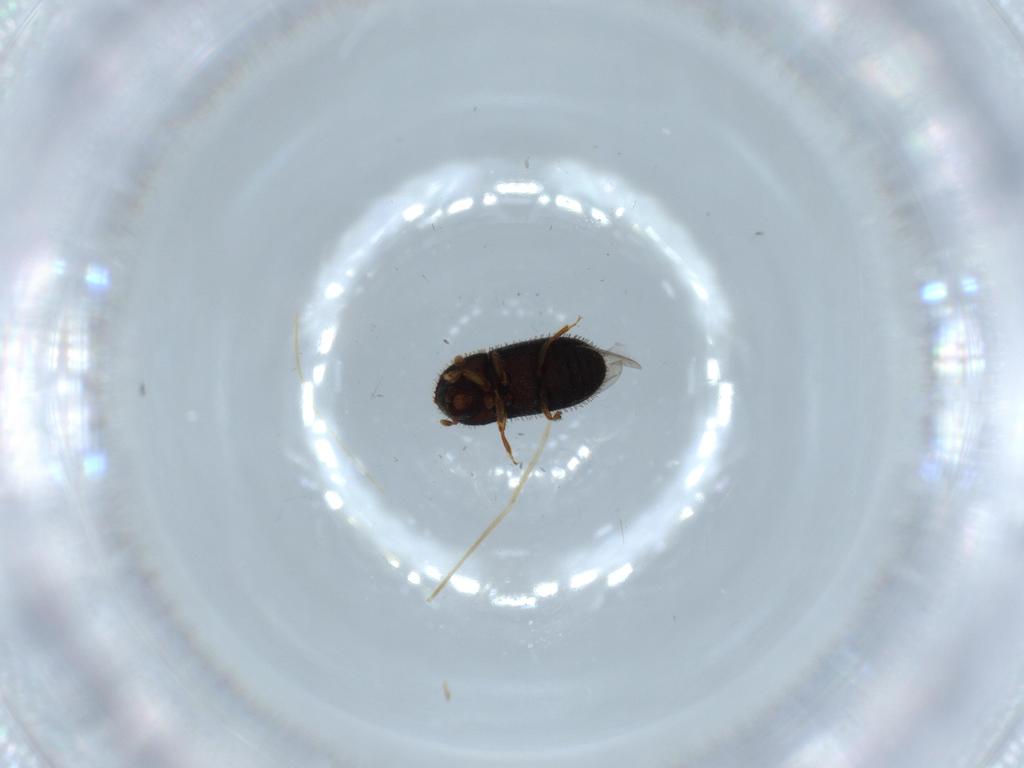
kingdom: Animalia
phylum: Arthropoda
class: Insecta
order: Coleoptera
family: Curculionidae
